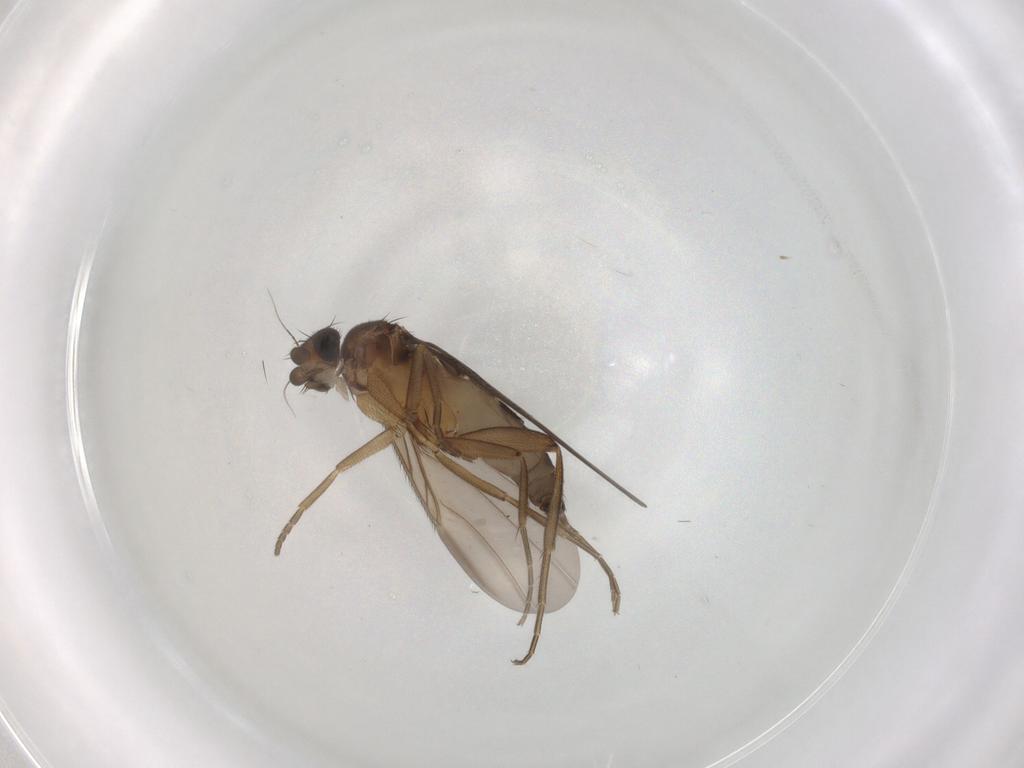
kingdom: Animalia
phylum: Arthropoda
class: Insecta
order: Diptera
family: Phoridae
